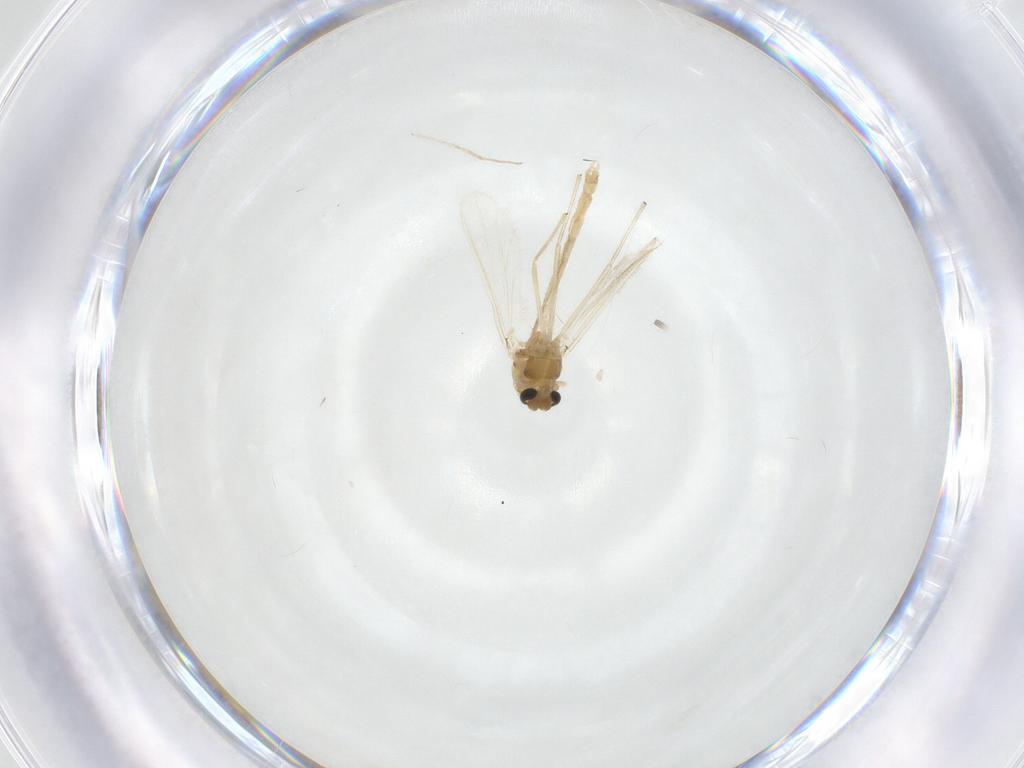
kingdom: Animalia
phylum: Arthropoda
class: Insecta
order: Diptera
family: Chironomidae
